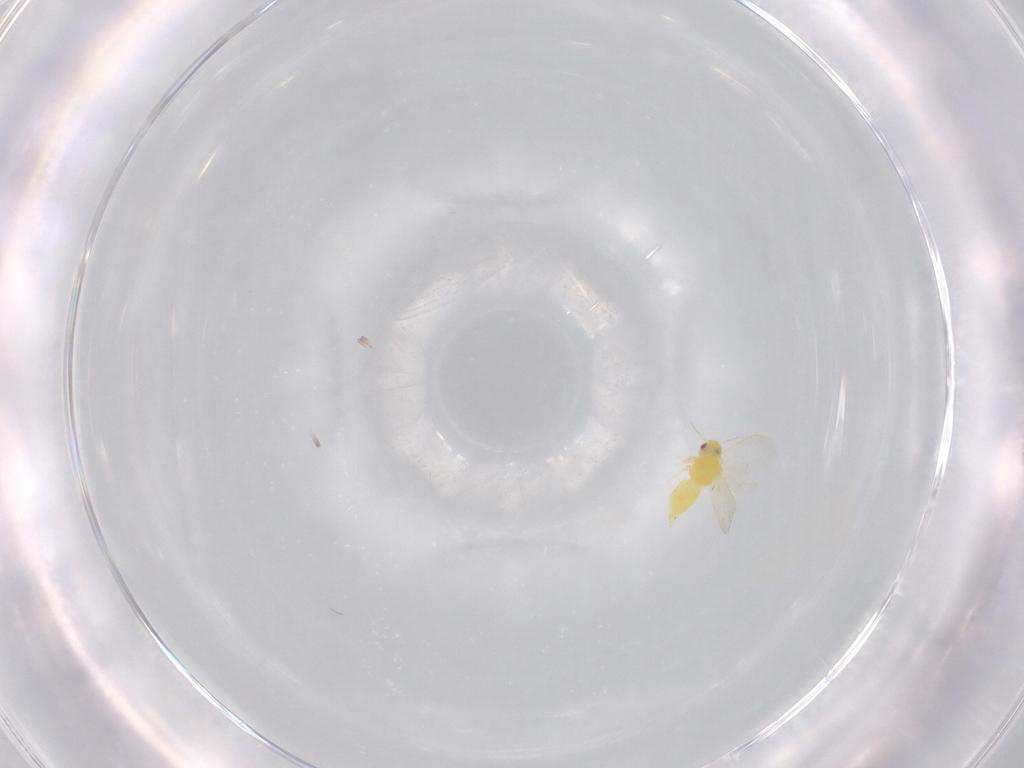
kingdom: Animalia
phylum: Arthropoda
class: Insecta
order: Hemiptera
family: Aleyrodidae
